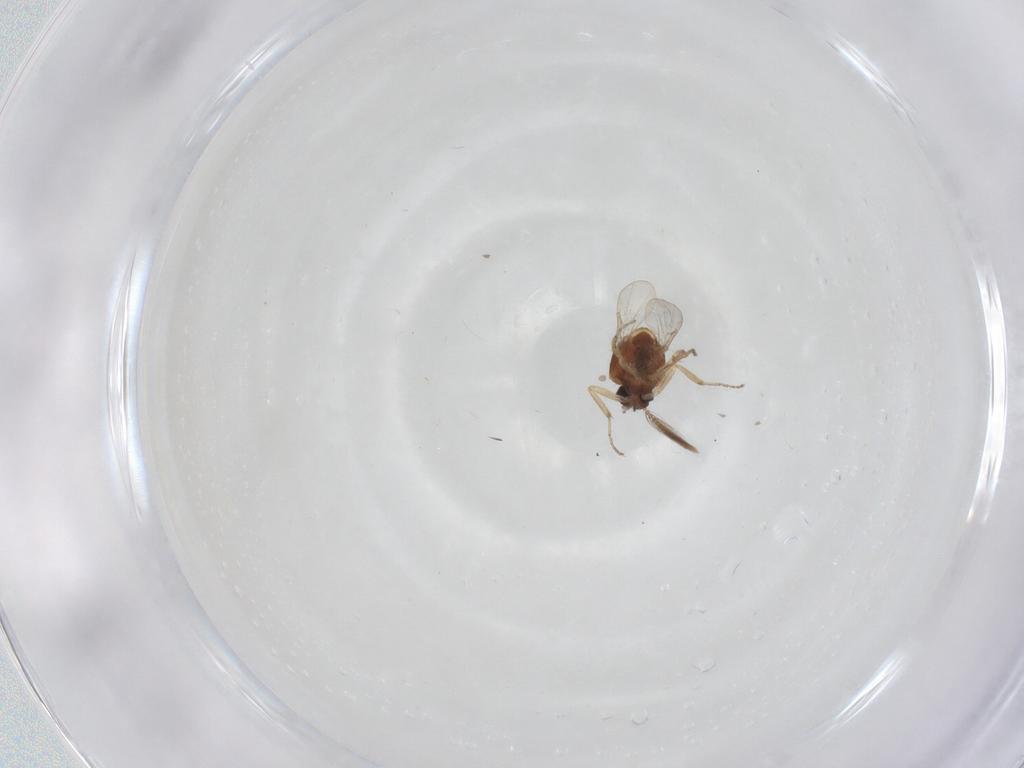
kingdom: Animalia
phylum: Arthropoda
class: Insecta
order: Diptera
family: Ceratopogonidae
